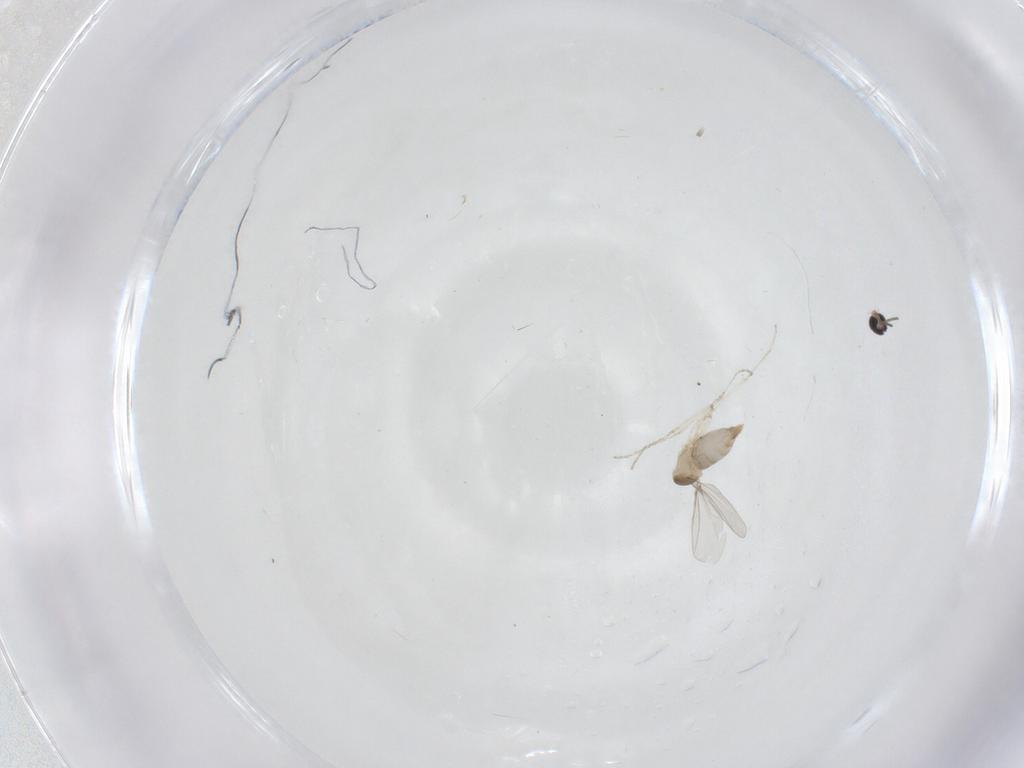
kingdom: Animalia
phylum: Arthropoda
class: Insecta
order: Diptera
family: Cecidomyiidae
